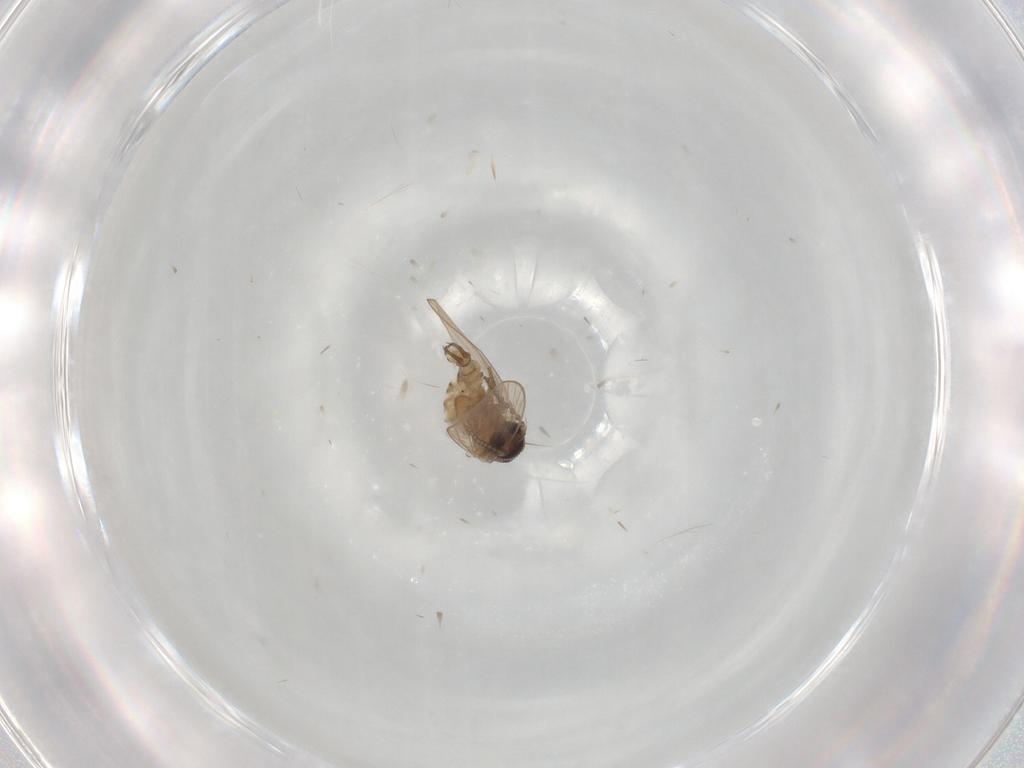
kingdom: Animalia
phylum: Arthropoda
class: Insecta
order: Diptera
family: Psychodidae
